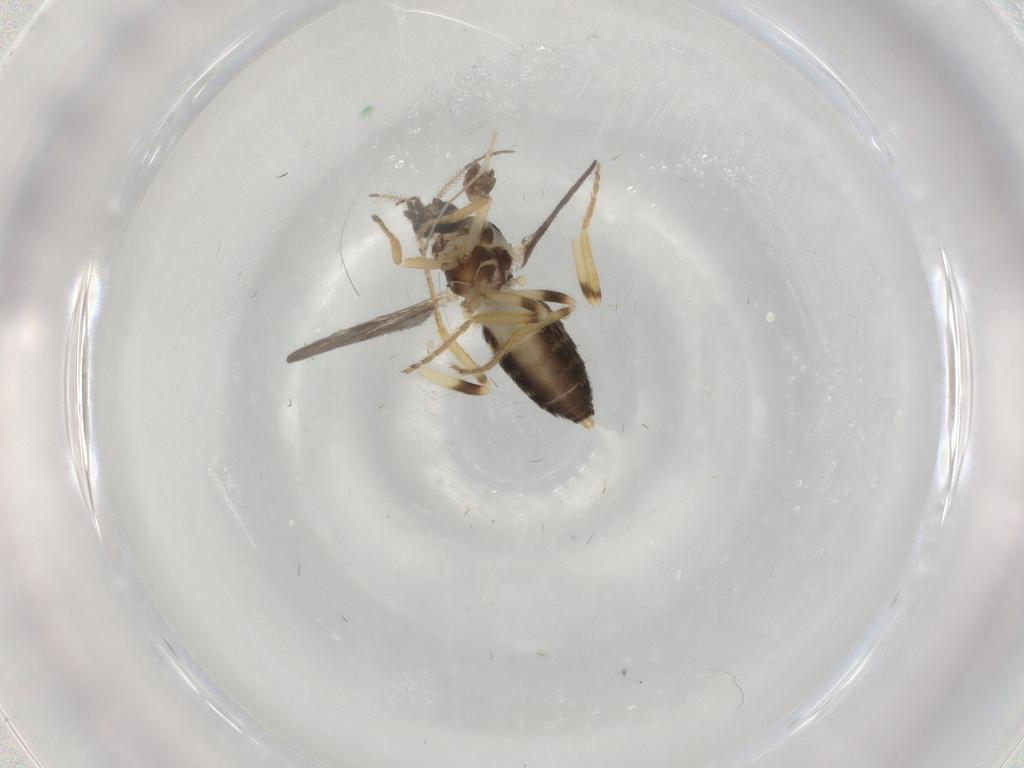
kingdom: Animalia
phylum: Arthropoda
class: Insecta
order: Diptera
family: Ceratopogonidae
